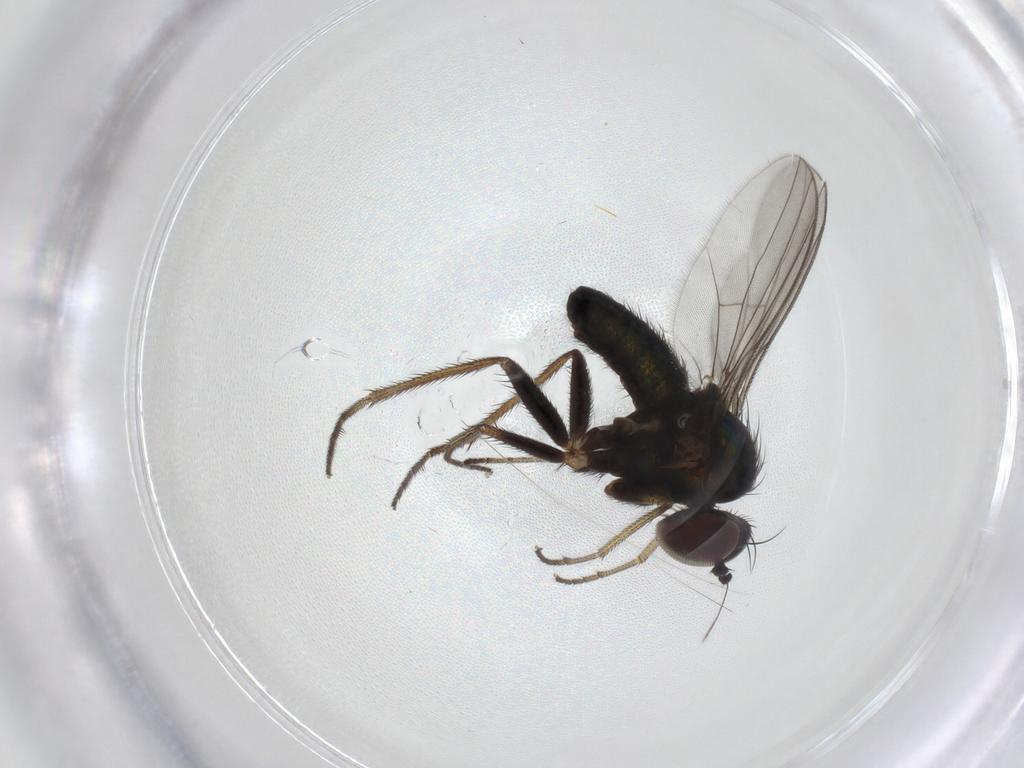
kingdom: Animalia
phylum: Arthropoda
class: Insecta
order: Diptera
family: Dolichopodidae
